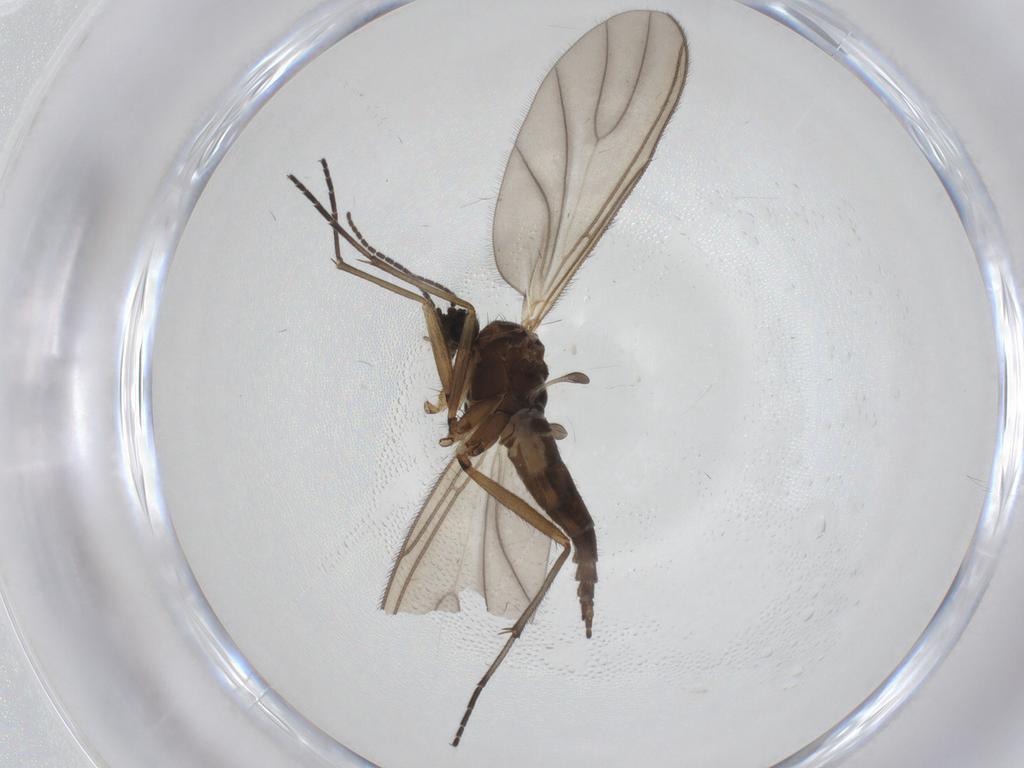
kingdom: Animalia
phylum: Arthropoda
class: Insecta
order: Diptera
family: Sciaridae
